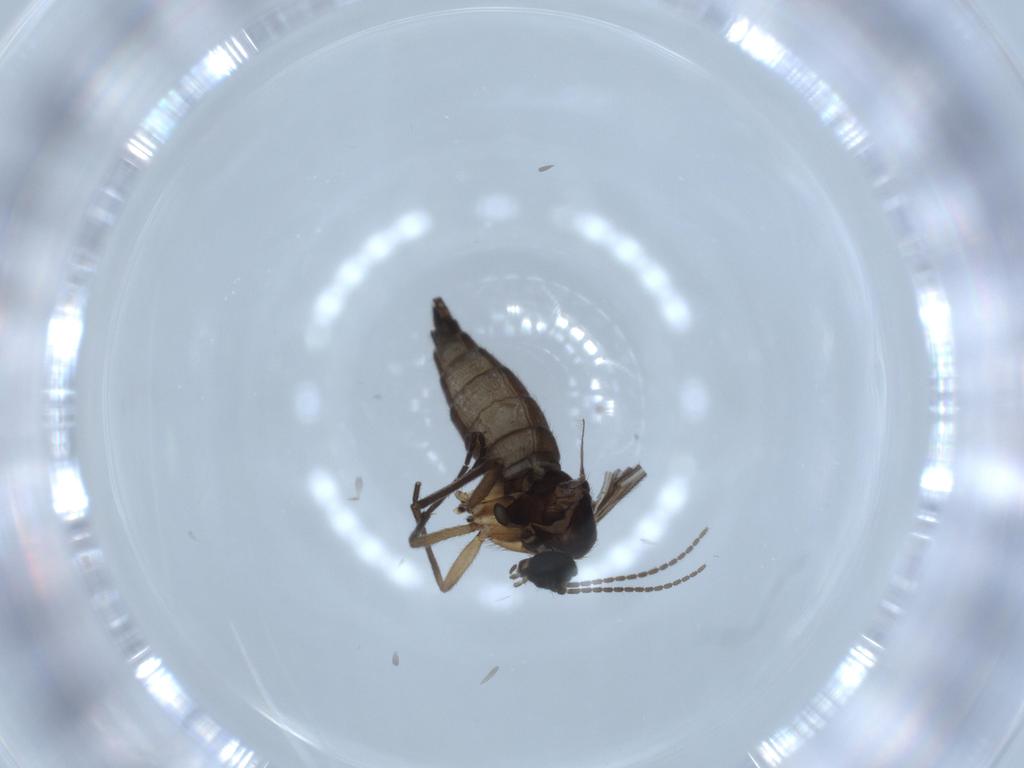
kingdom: Animalia
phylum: Arthropoda
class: Insecta
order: Diptera
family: Sciaridae
